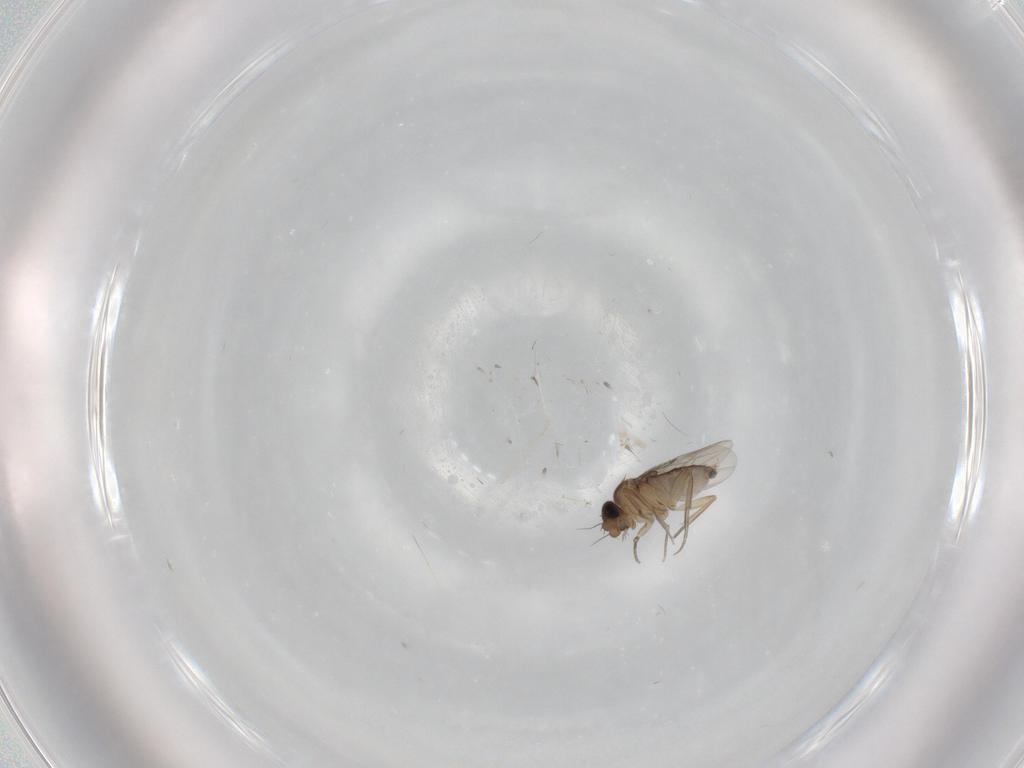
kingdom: Animalia
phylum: Arthropoda
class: Insecta
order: Diptera
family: Phoridae
